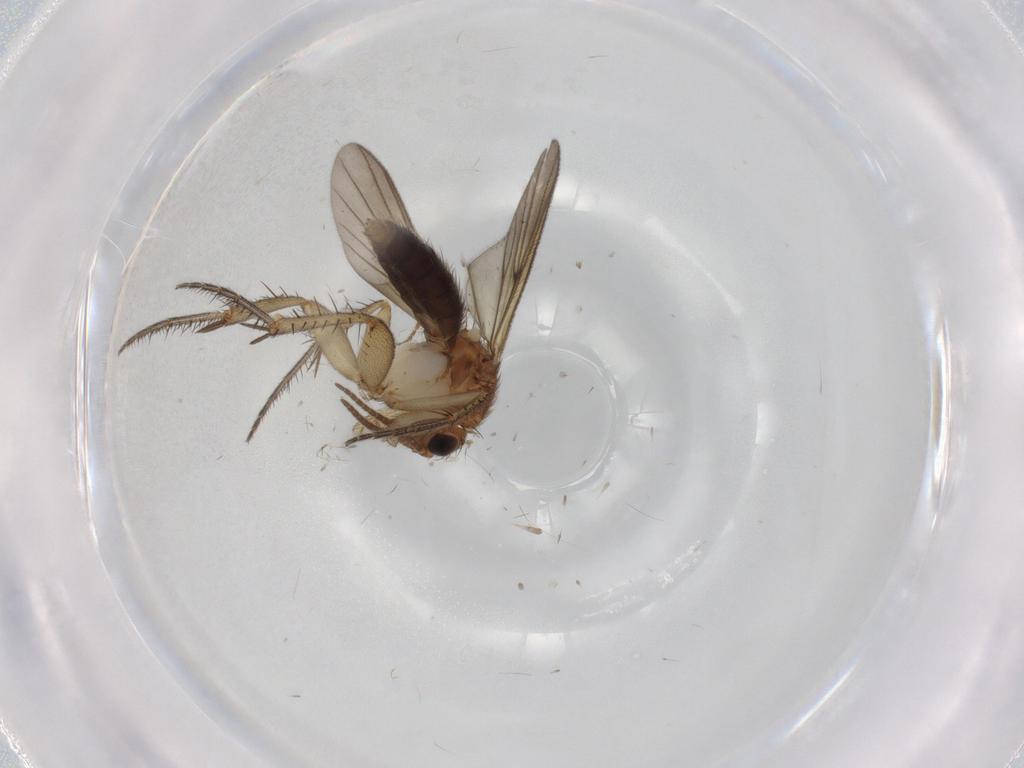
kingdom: Animalia
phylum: Arthropoda
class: Insecta
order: Diptera
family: Mycetophilidae
